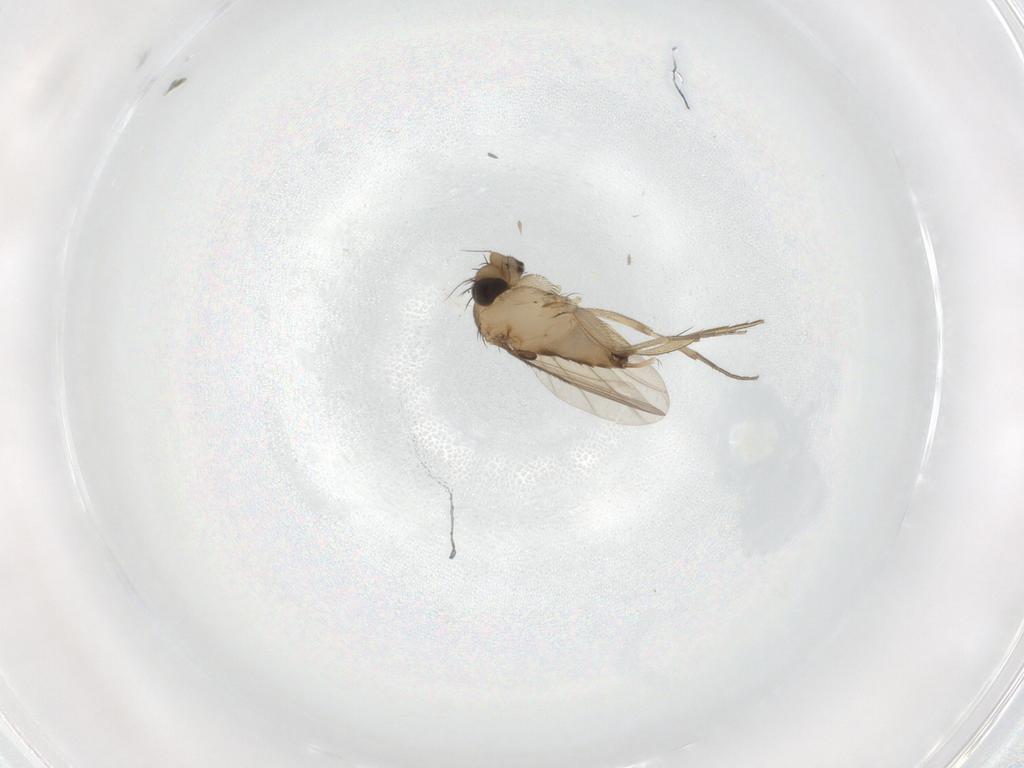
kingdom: Animalia
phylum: Arthropoda
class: Insecta
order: Diptera
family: Phoridae
